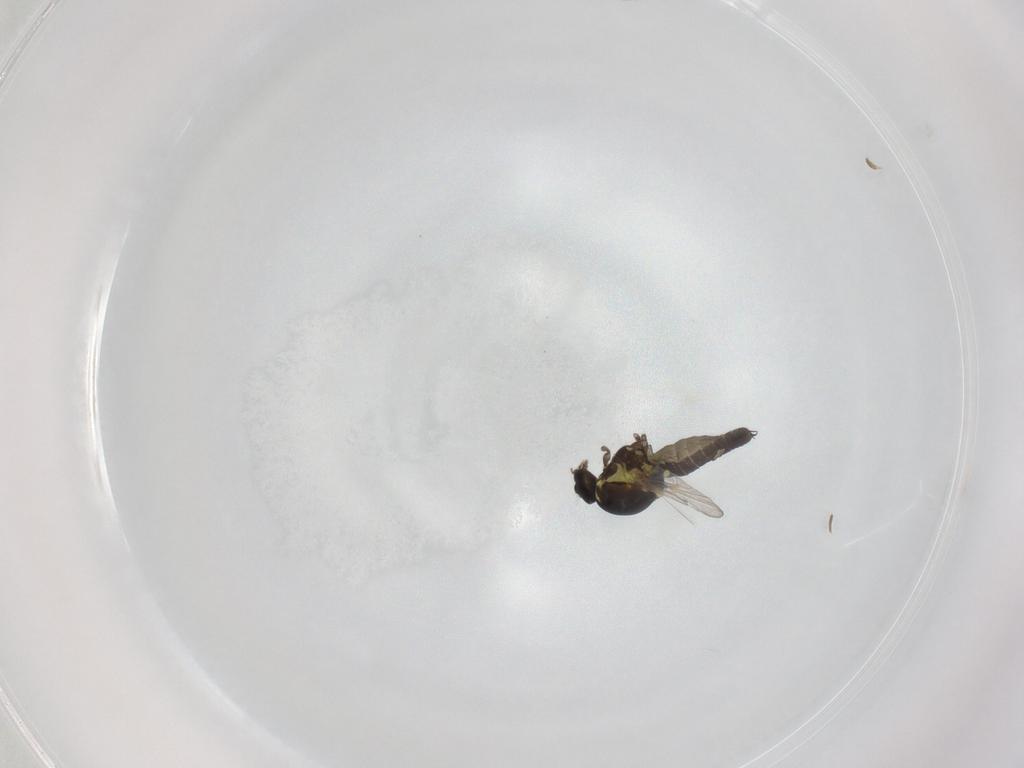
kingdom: Animalia
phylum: Arthropoda
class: Insecta
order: Diptera
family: Ceratopogonidae
